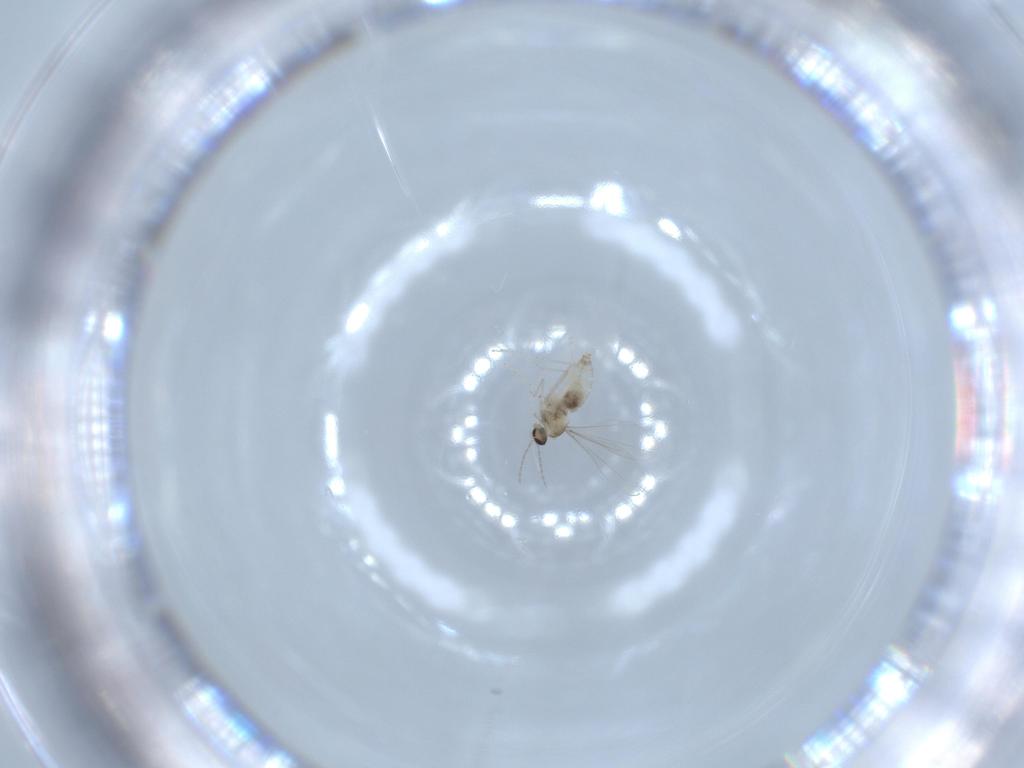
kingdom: Animalia
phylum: Arthropoda
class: Insecta
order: Diptera
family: Cecidomyiidae
